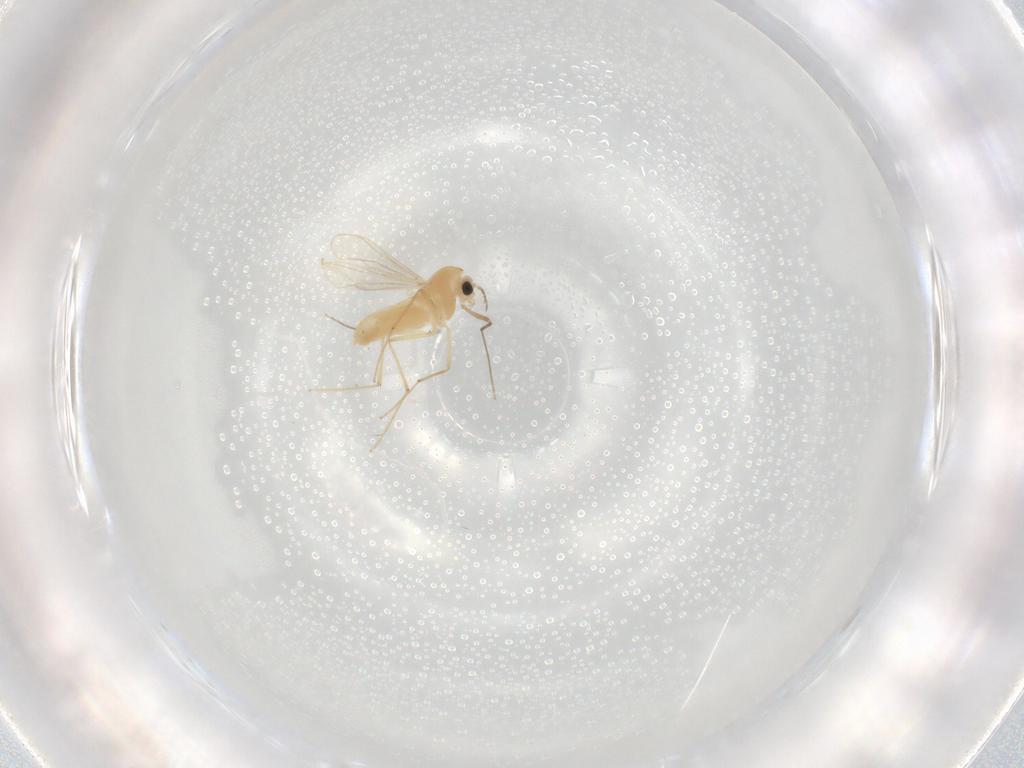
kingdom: Animalia
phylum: Arthropoda
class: Insecta
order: Diptera
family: Chironomidae
